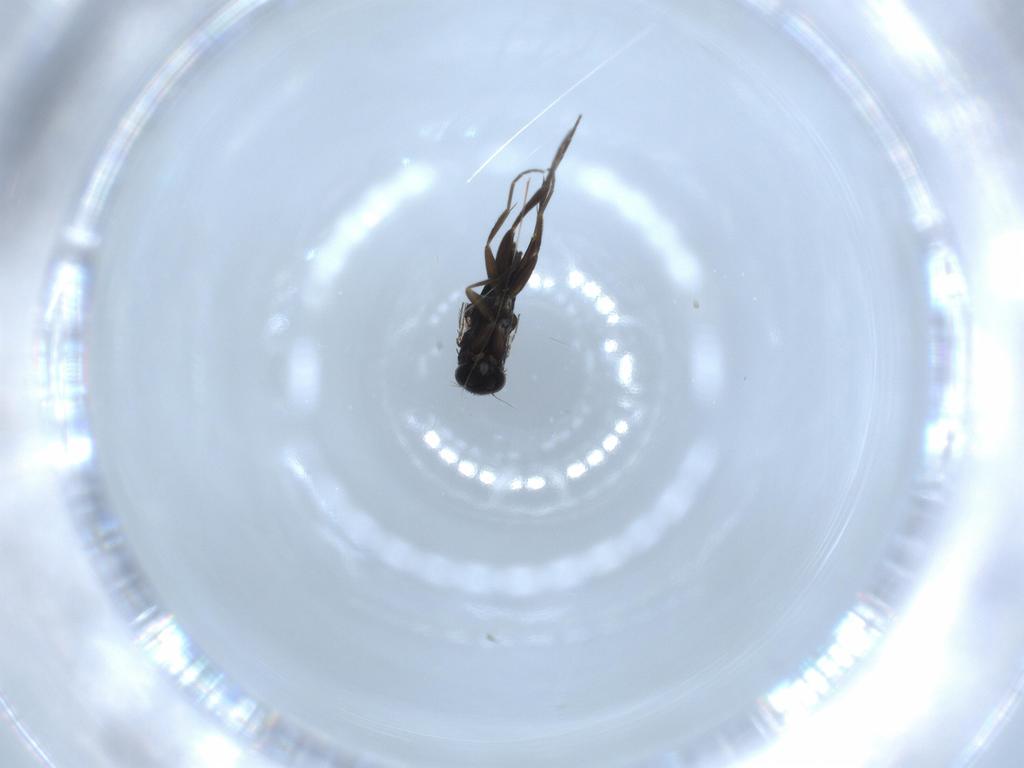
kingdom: Animalia
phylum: Arthropoda
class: Insecta
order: Diptera
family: Phoridae
